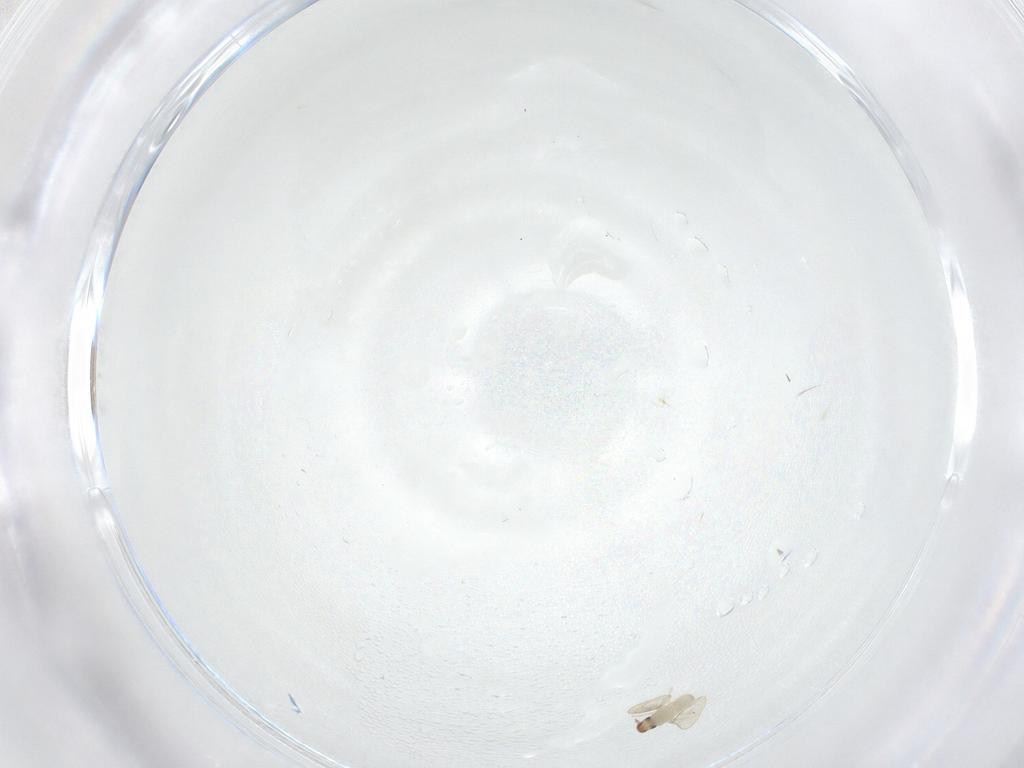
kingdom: Animalia
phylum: Arthropoda
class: Insecta
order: Diptera
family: Cecidomyiidae
